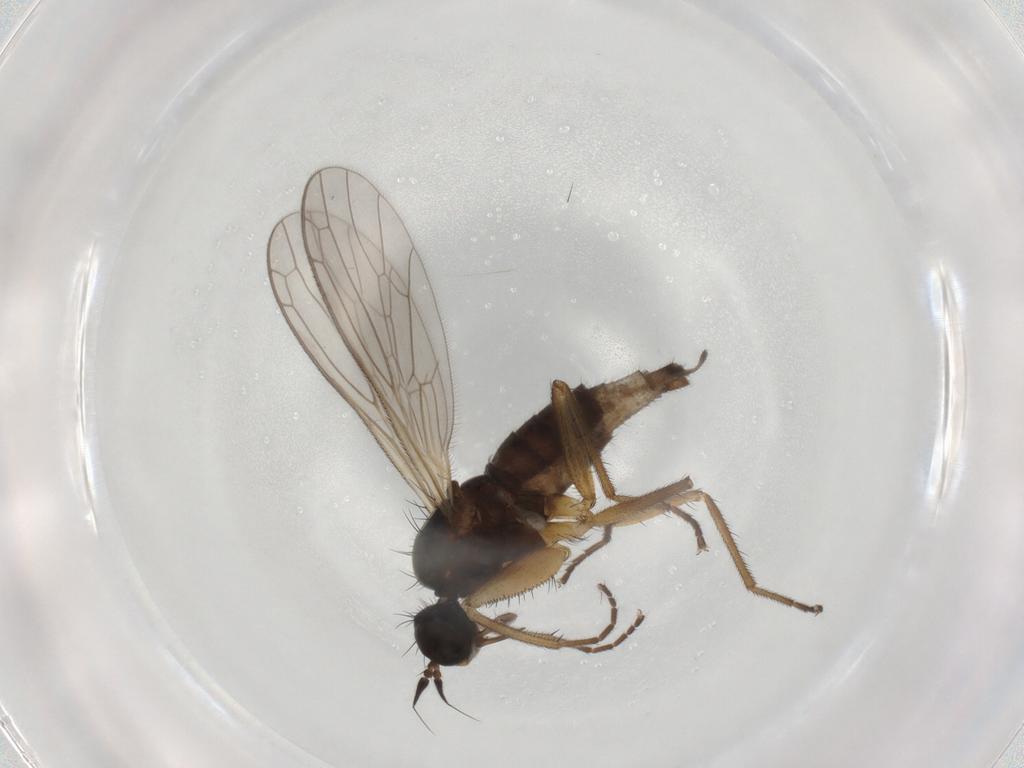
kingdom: Animalia
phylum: Arthropoda
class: Insecta
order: Diptera
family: Cecidomyiidae
